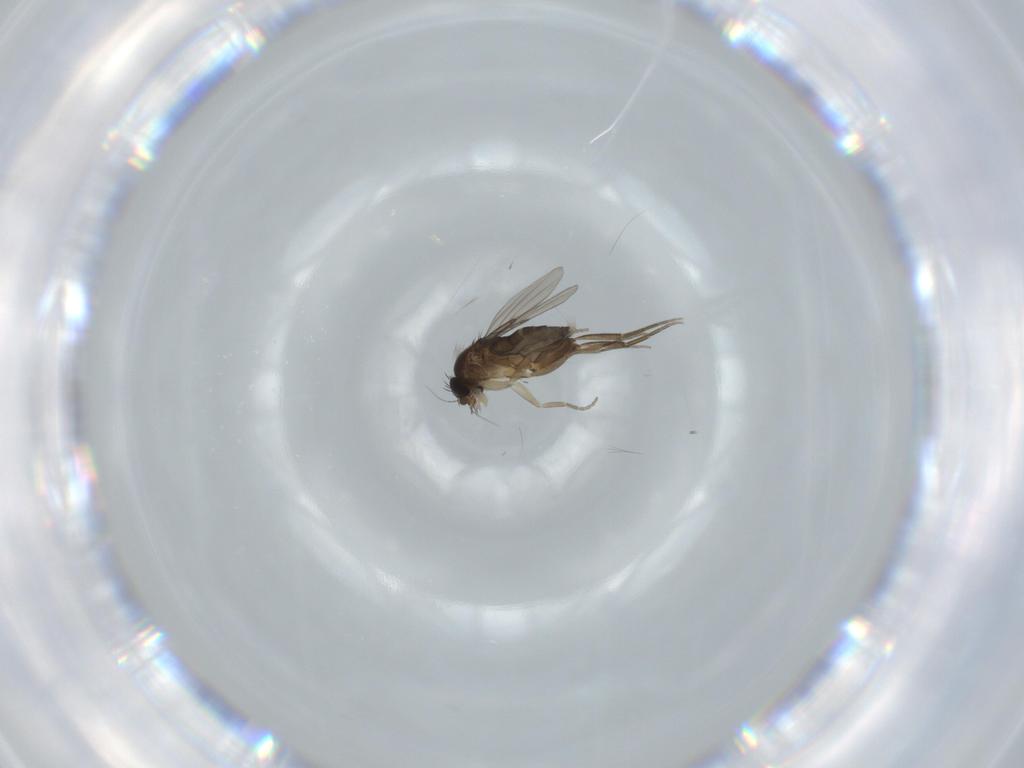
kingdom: Animalia
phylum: Arthropoda
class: Insecta
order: Diptera
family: Phoridae
